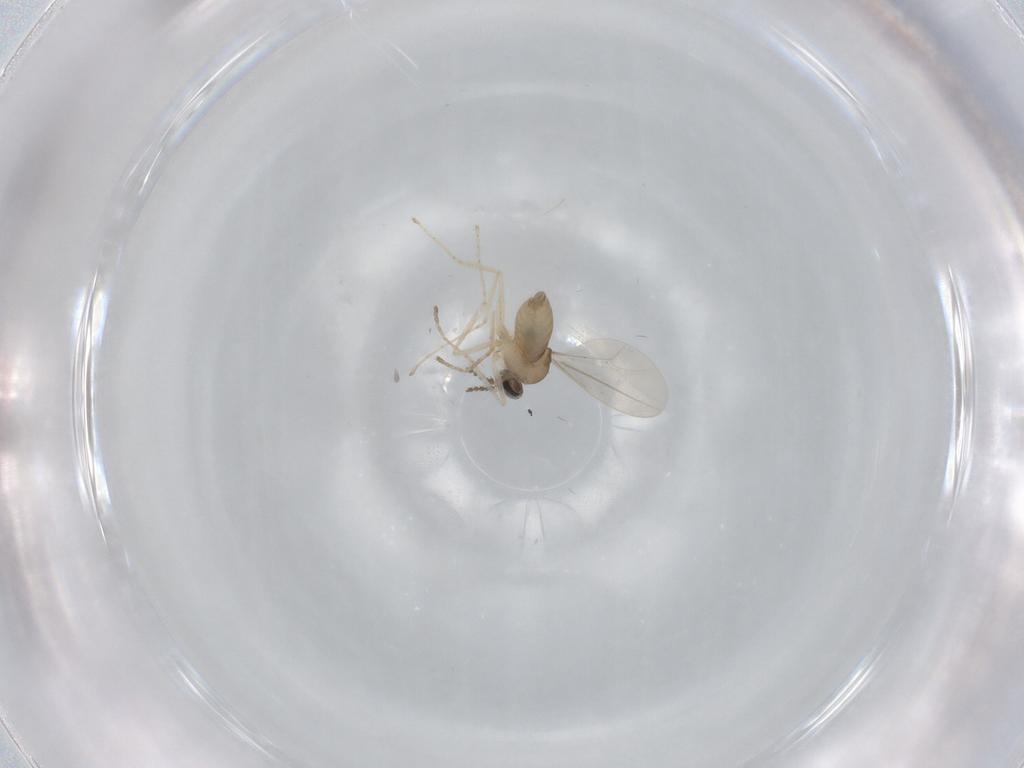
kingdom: Animalia
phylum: Arthropoda
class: Insecta
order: Diptera
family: Cecidomyiidae
